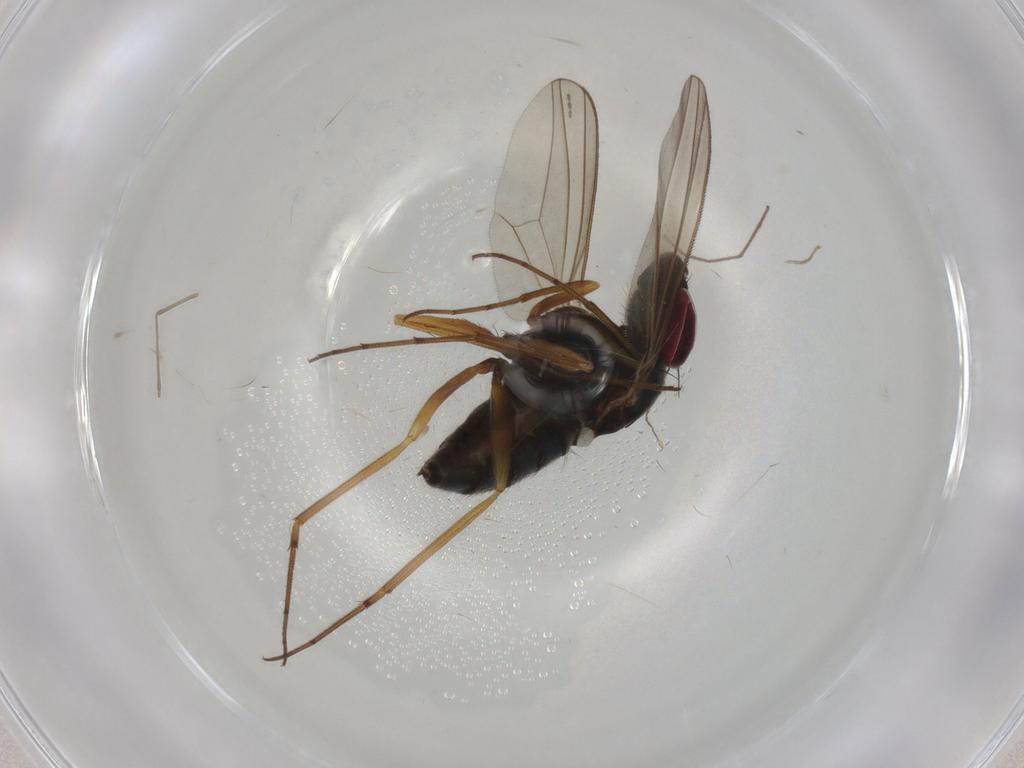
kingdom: Animalia
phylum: Arthropoda
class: Insecta
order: Diptera
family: Dolichopodidae
